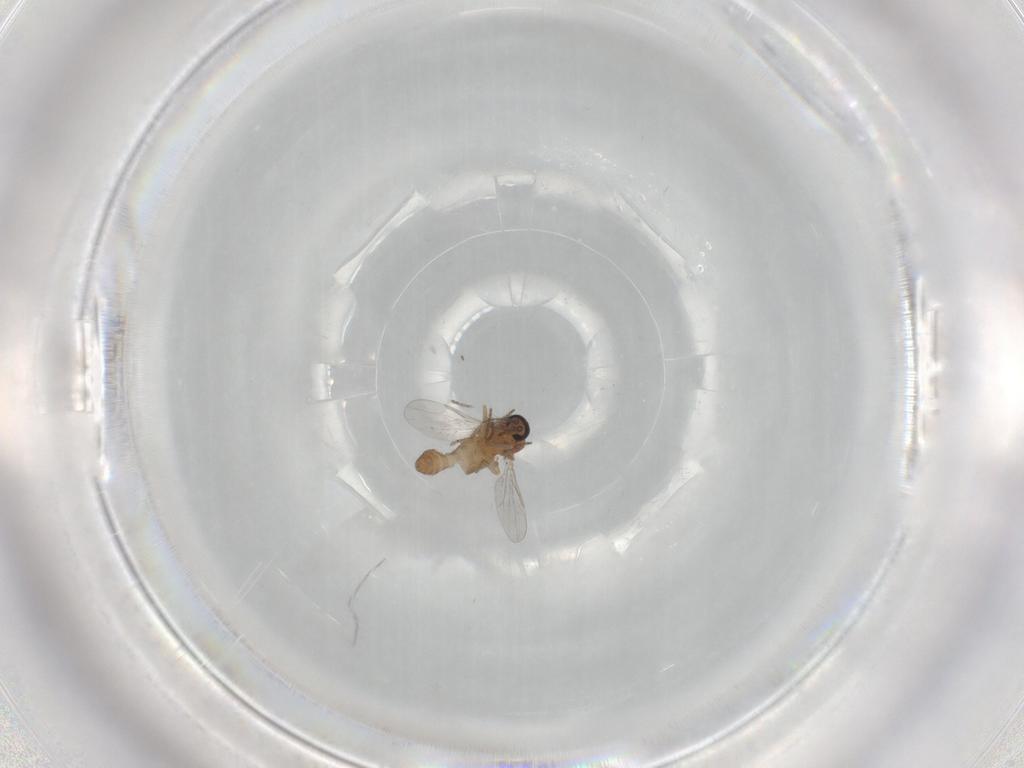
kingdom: Animalia
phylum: Arthropoda
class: Insecta
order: Diptera
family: Ceratopogonidae
